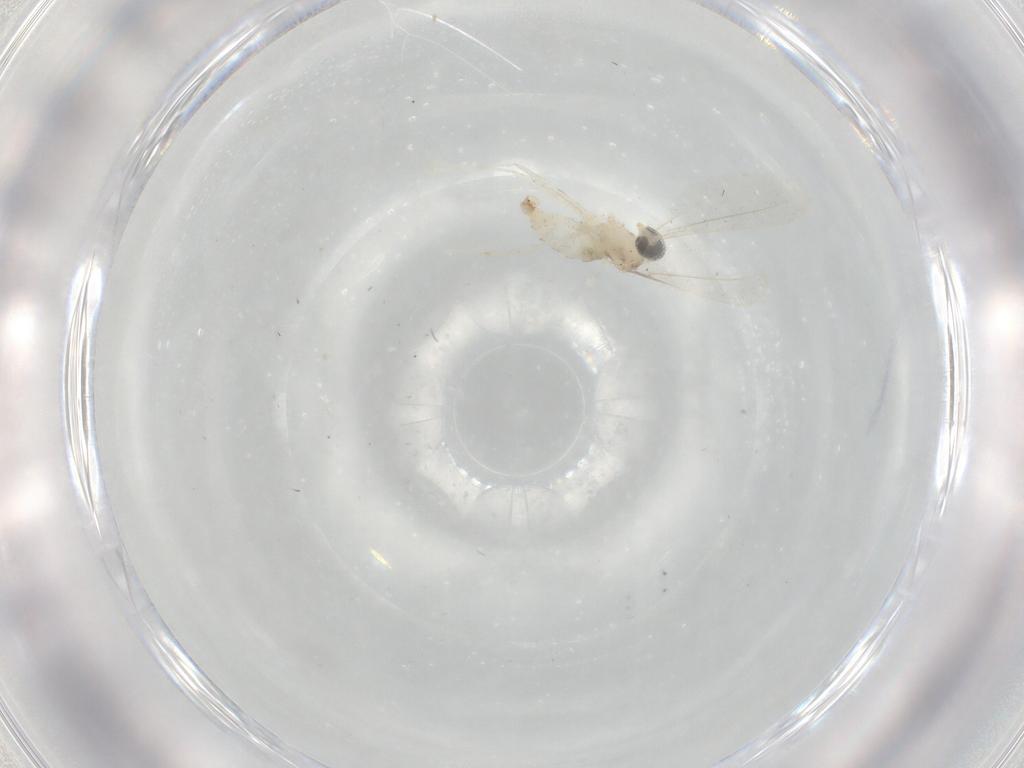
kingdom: Animalia
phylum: Arthropoda
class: Insecta
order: Diptera
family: Cecidomyiidae
